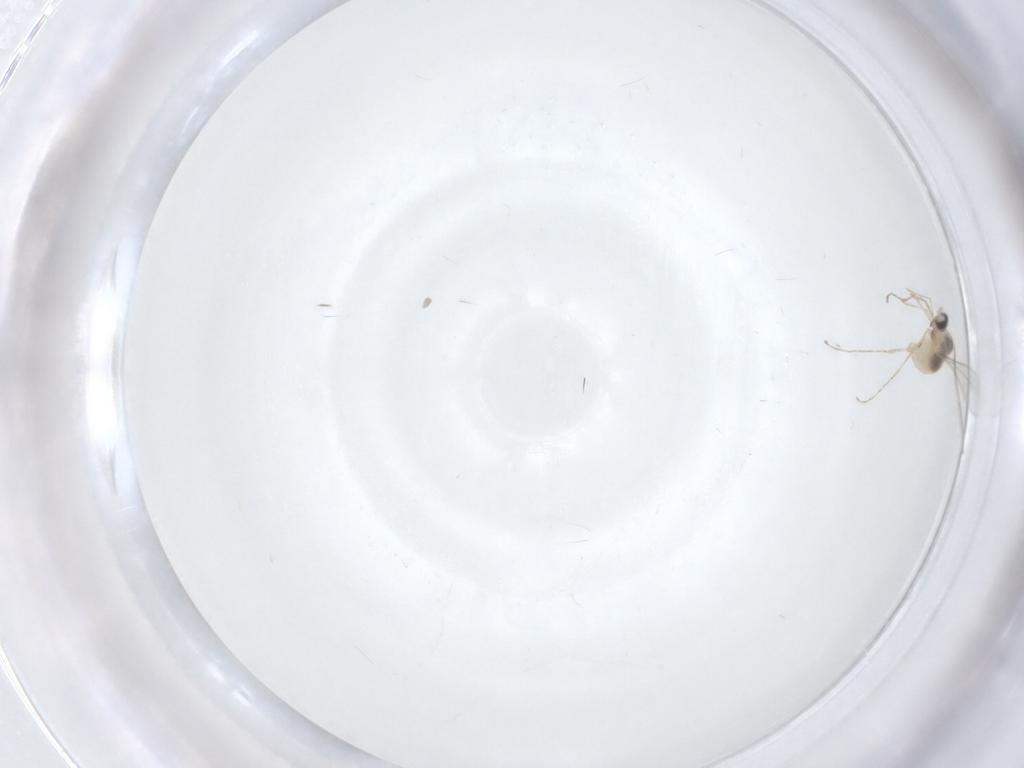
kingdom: Animalia
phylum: Arthropoda
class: Insecta
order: Diptera
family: Cecidomyiidae
